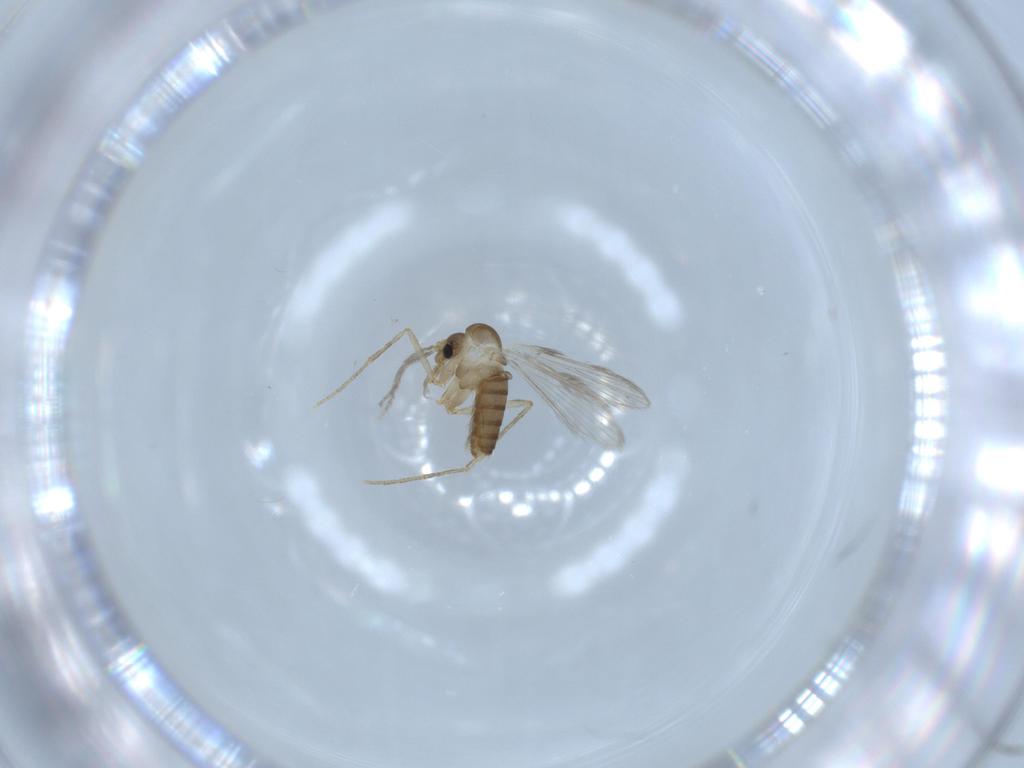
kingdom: Animalia
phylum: Arthropoda
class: Insecta
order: Diptera
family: Psychodidae
